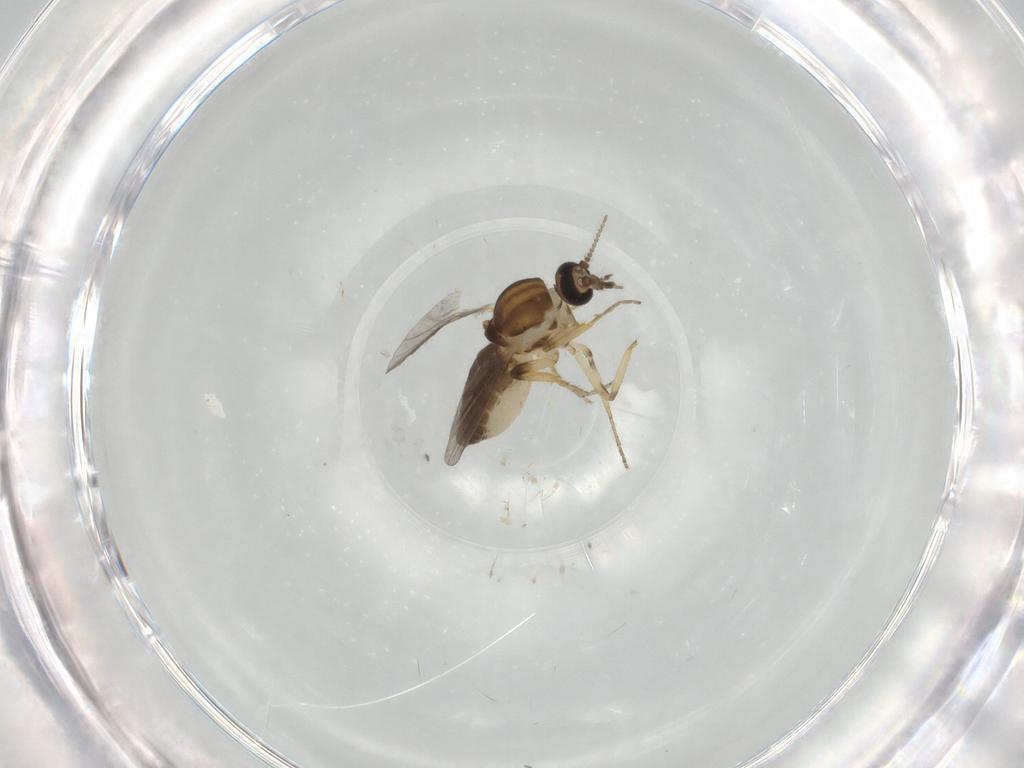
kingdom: Animalia
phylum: Arthropoda
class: Insecta
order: Diptera
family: Ceratopogonidae
